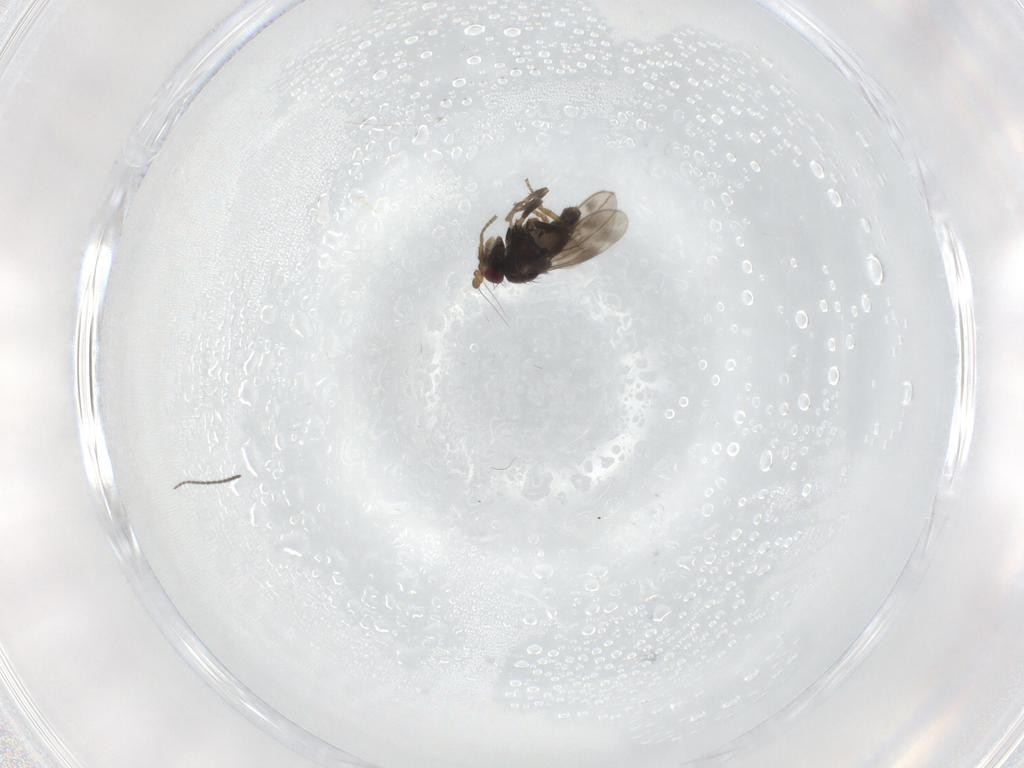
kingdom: Animalia
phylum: Arthropoda
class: Insecta
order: Diptera
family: Sphaeroceridae
